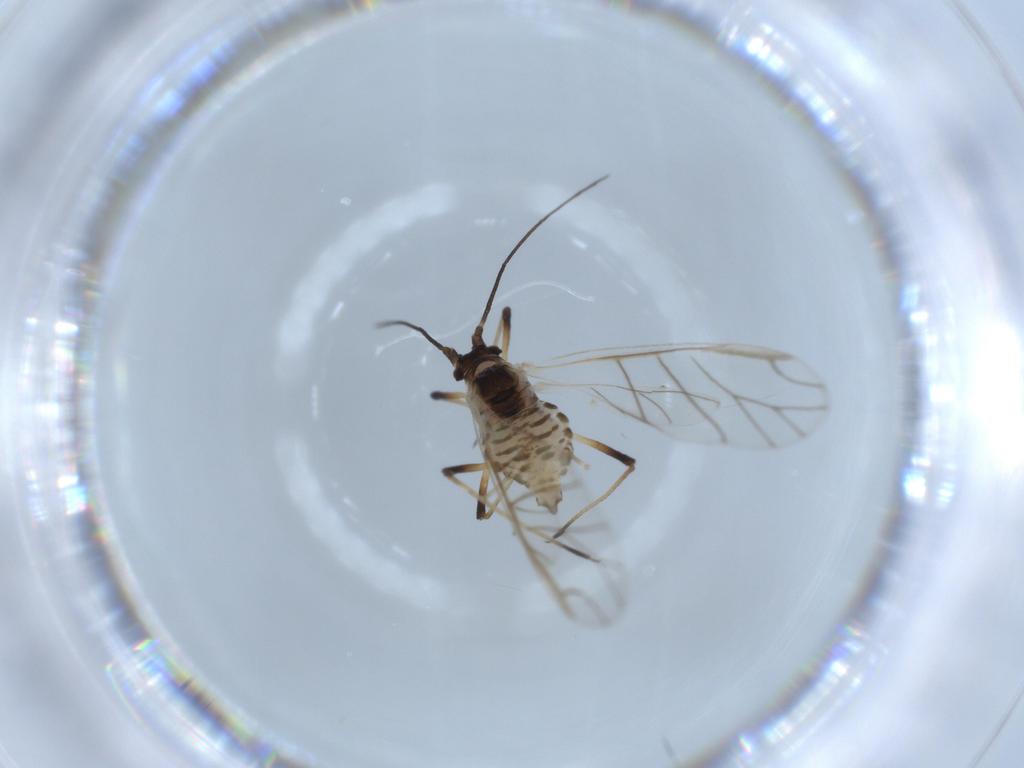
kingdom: Animalia
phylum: Arthropoda
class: Insecta
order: Hemiptera
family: Aphididae
